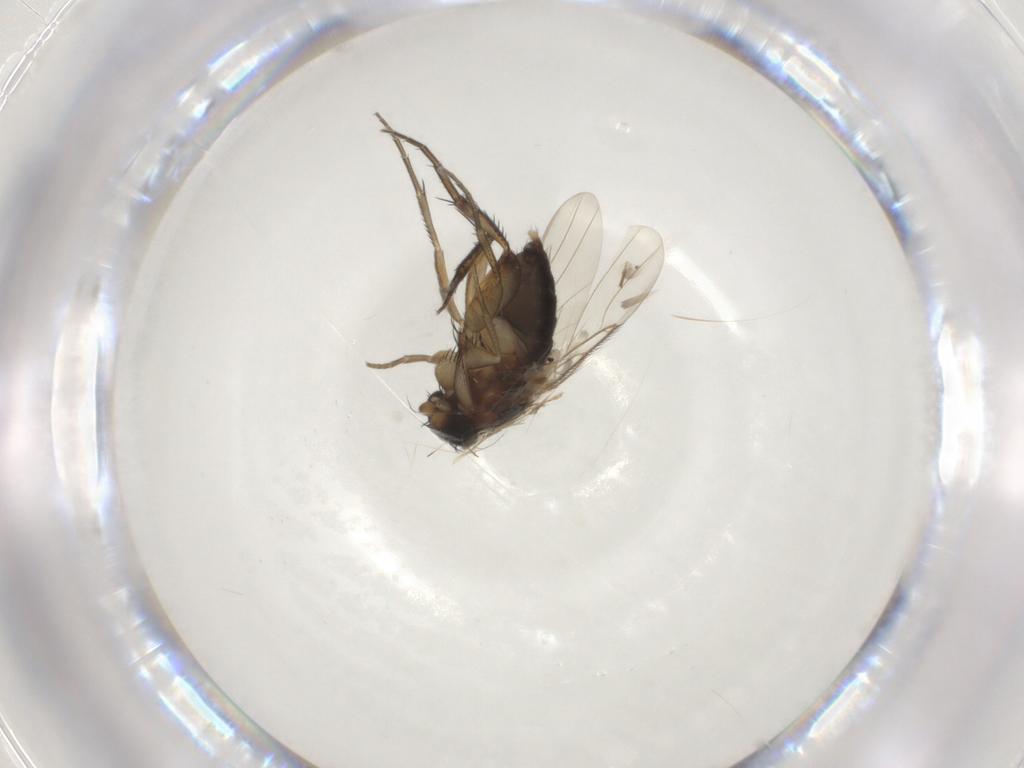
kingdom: Animalia
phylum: Arthropoda
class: Insecta
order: Diptera
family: Phoridae
